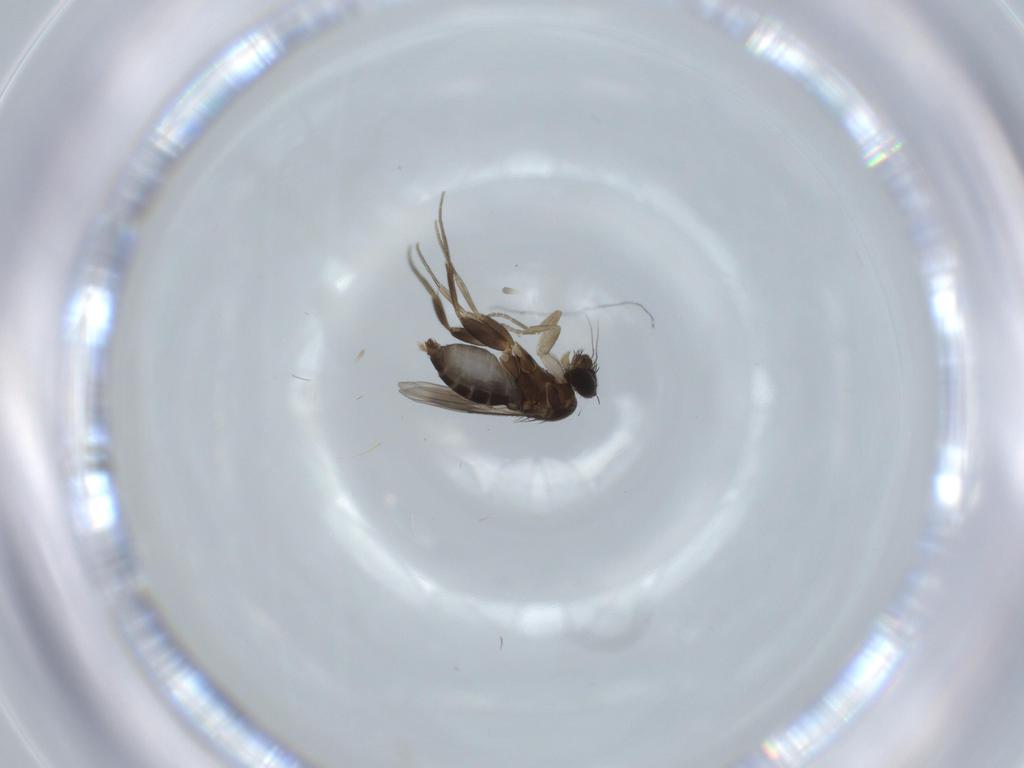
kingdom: Animalia
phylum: Arthropoda
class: Insecta
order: Diptera
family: Phoridae
